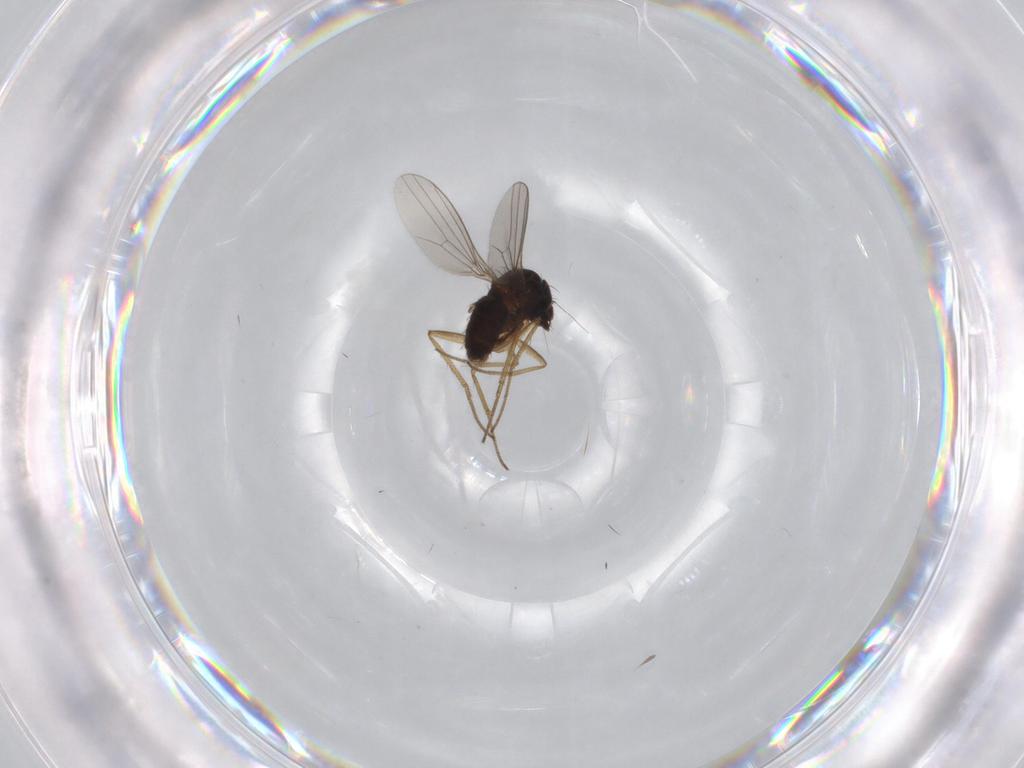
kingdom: Animalia
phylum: Arthropoda
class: Insecta
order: Diptera
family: Dolichopodidae
